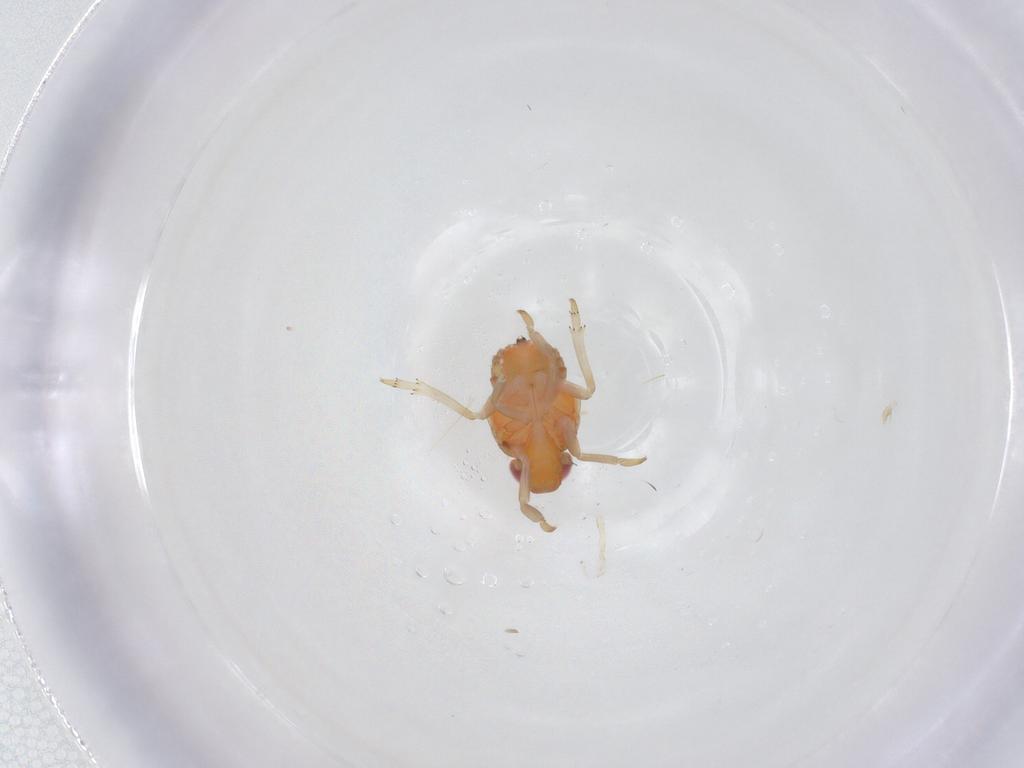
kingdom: Animalia
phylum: Arthropoda
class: Insecta
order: Hemiptera
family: Fulgoroidea_incertae_sedis
